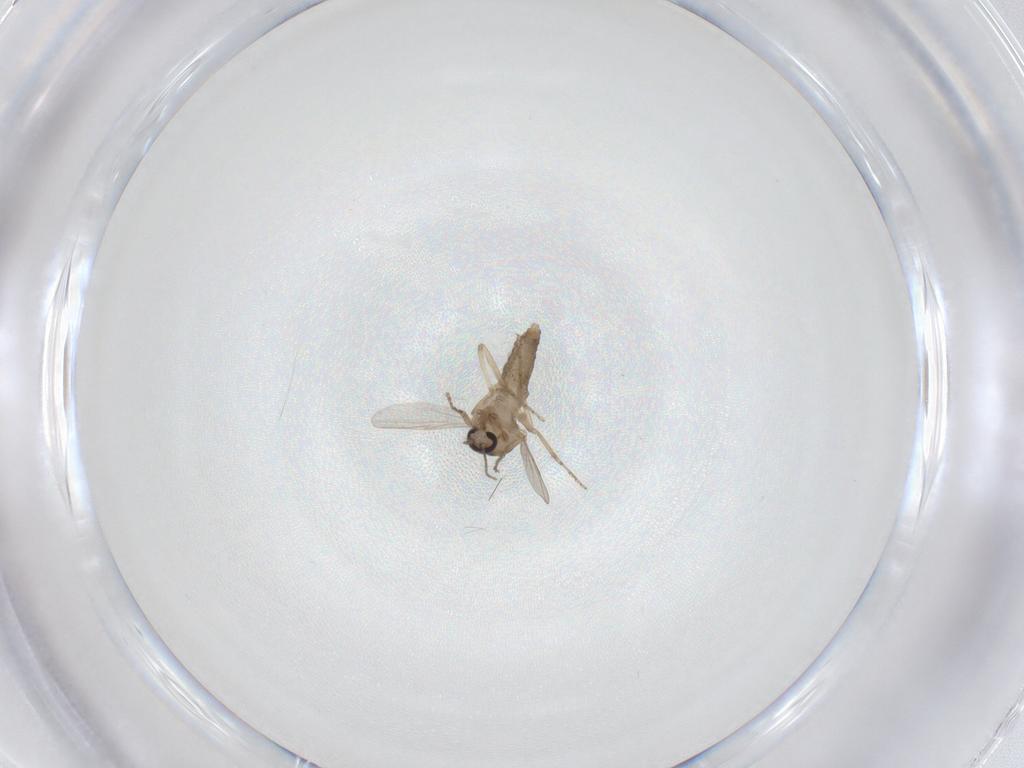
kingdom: Animalia
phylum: Arthropoda
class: Insecta
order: Diptera
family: Ceratopogonidae
